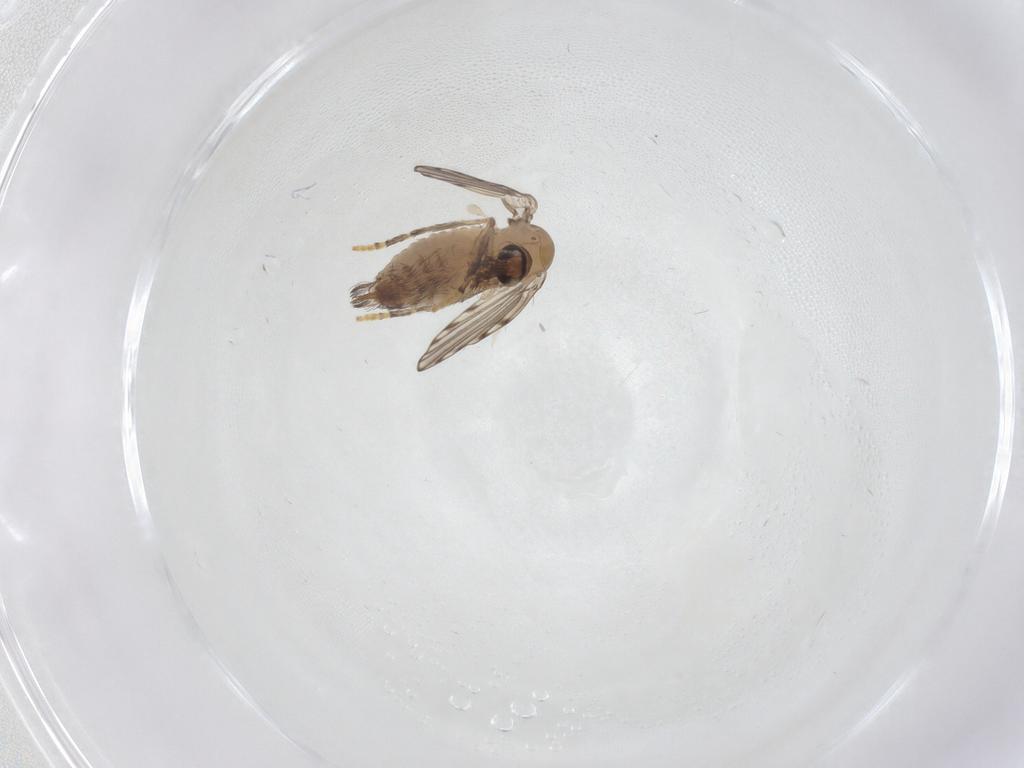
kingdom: Animalia
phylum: Arthropoda
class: Insecta
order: Diptera
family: Psychodidae
